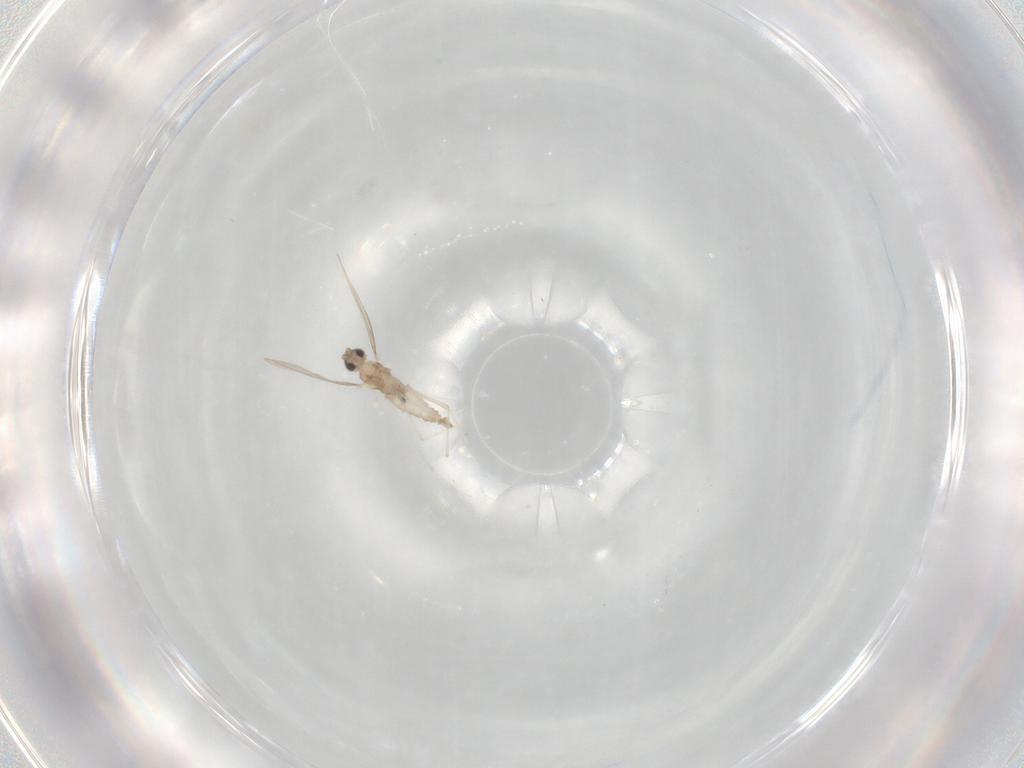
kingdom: Animalia
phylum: Arthropoda
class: Insecta
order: Diptera
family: Cecidomyiidae
